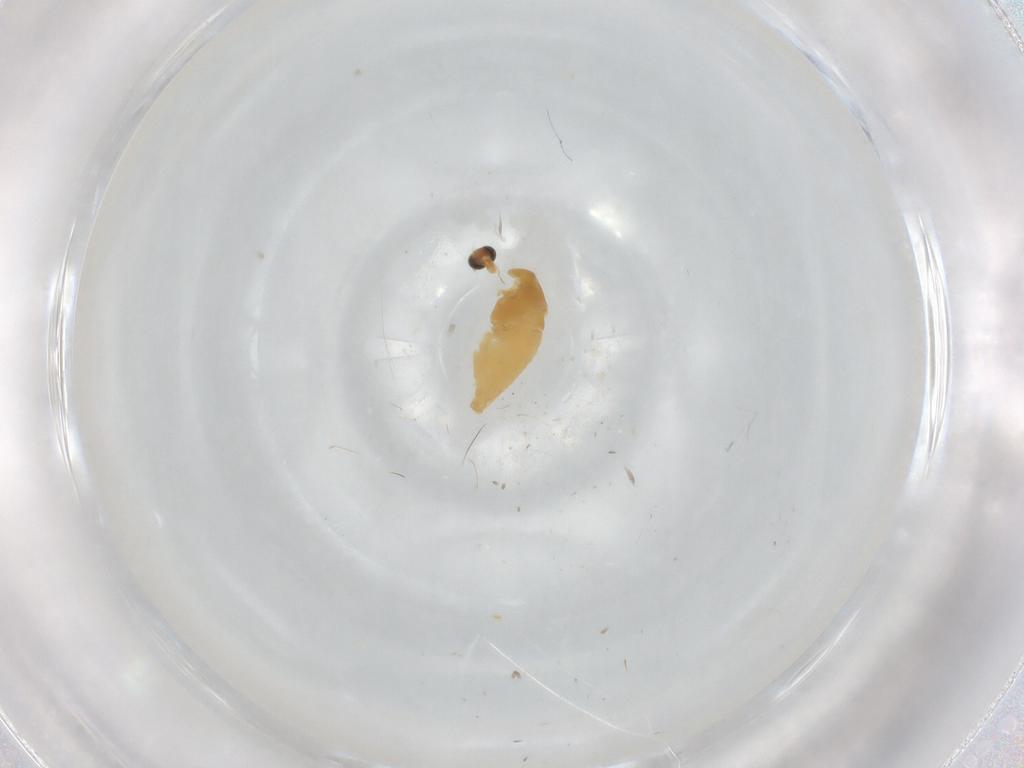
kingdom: Animalia
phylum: Arthropoda
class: Insecta
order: Diptera
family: Chironomidae
